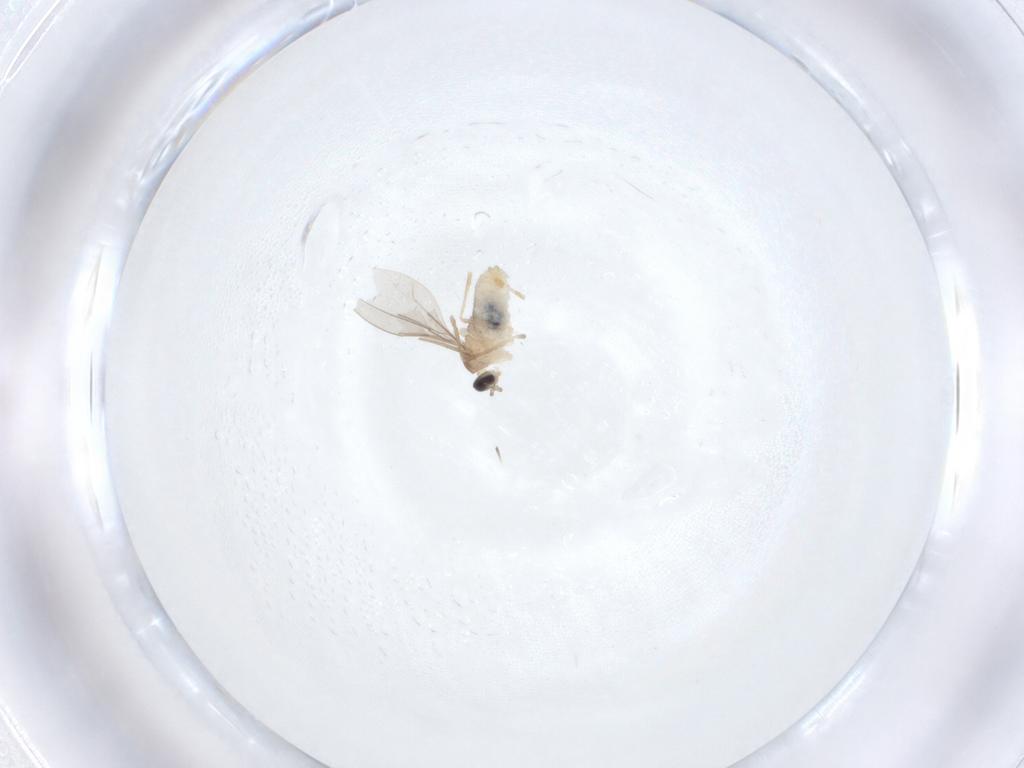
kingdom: Animalia
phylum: Arthropoda
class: Insecta
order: Diptera
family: Cecidomyiidae
